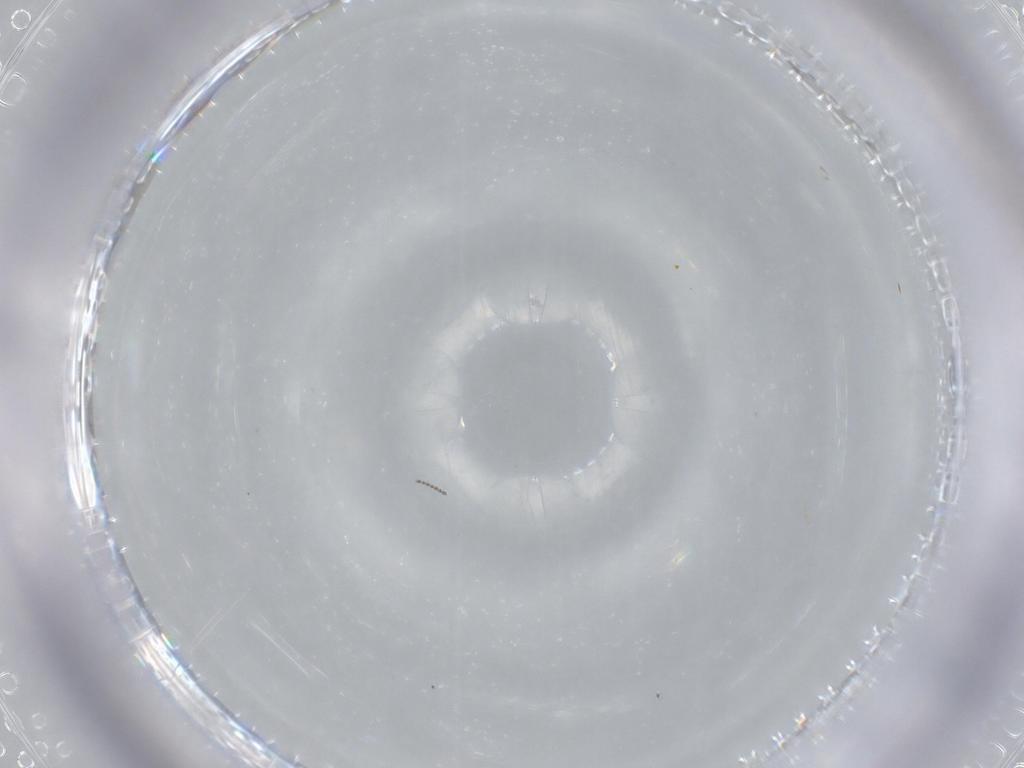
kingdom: Animalia
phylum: Arthropoda
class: Insecta
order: Diptera
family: Cecidomyiidae
